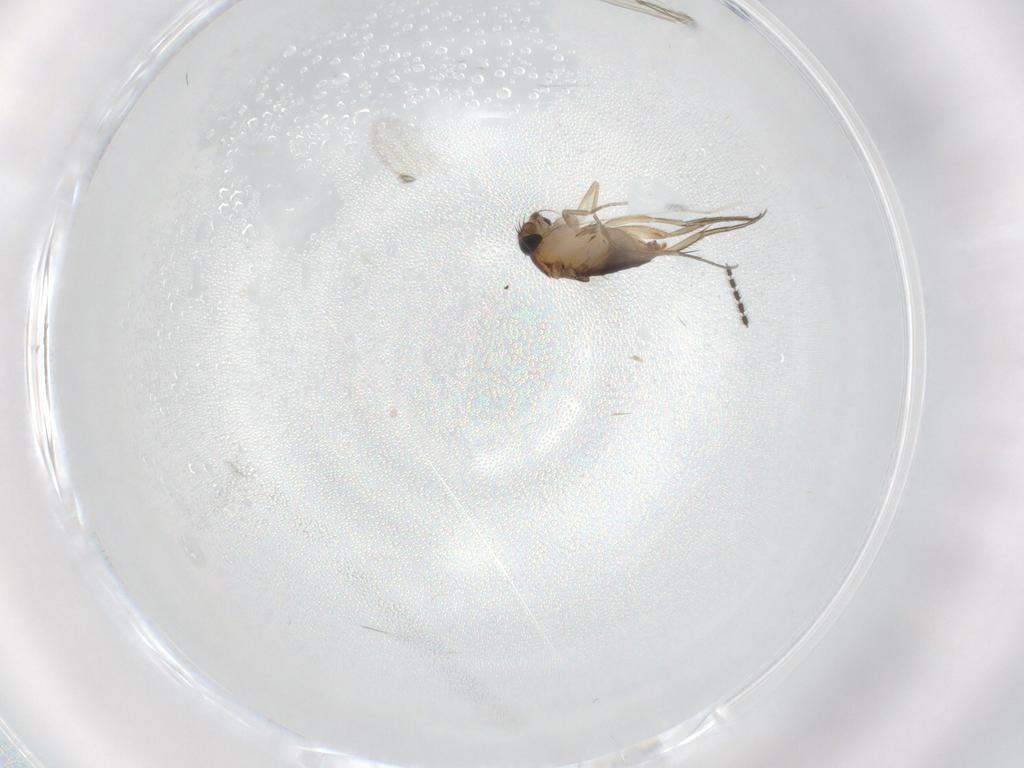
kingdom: Animalia
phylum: Arthropoda
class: Insecta
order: Diptera
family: Phoridae
